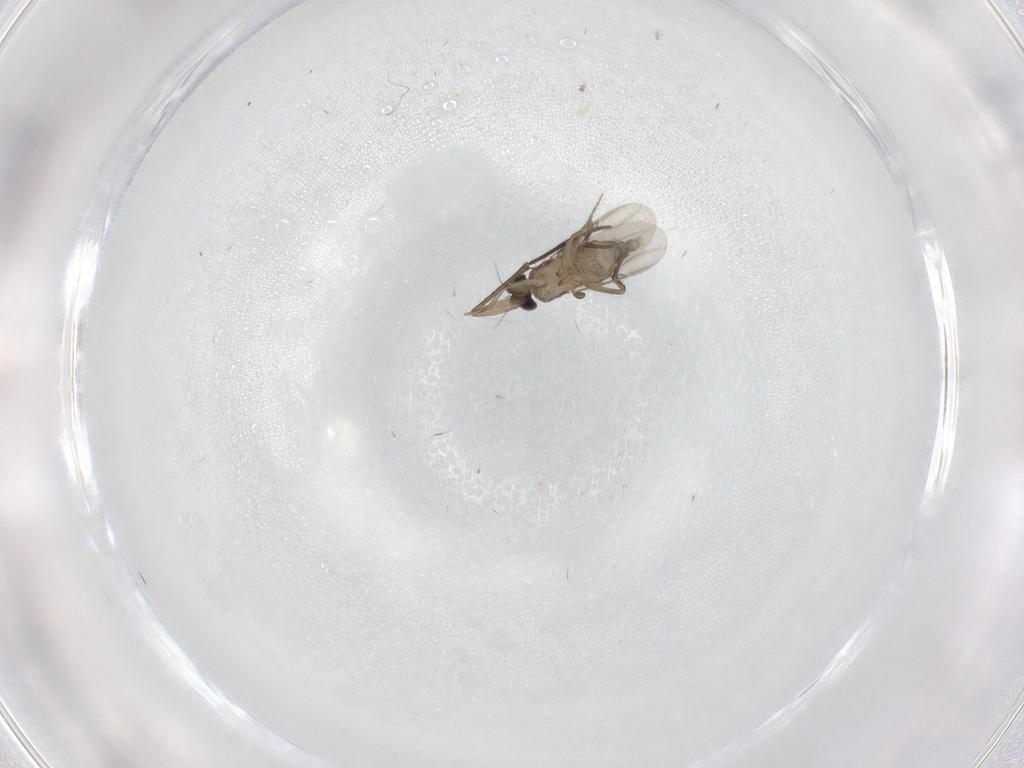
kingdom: Animalia
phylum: Arthropoda
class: Insecta
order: Diptera
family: Phoridae
